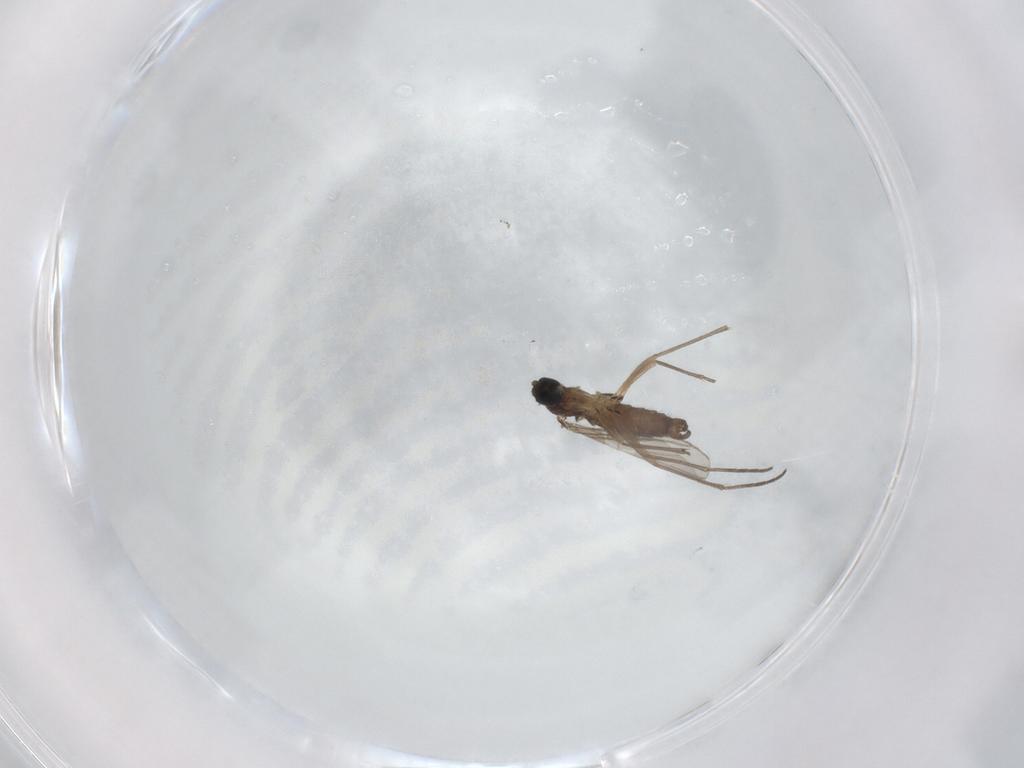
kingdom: Animalia
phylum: Arthropoda
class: Insecta
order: Diptera
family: Sciaridae
